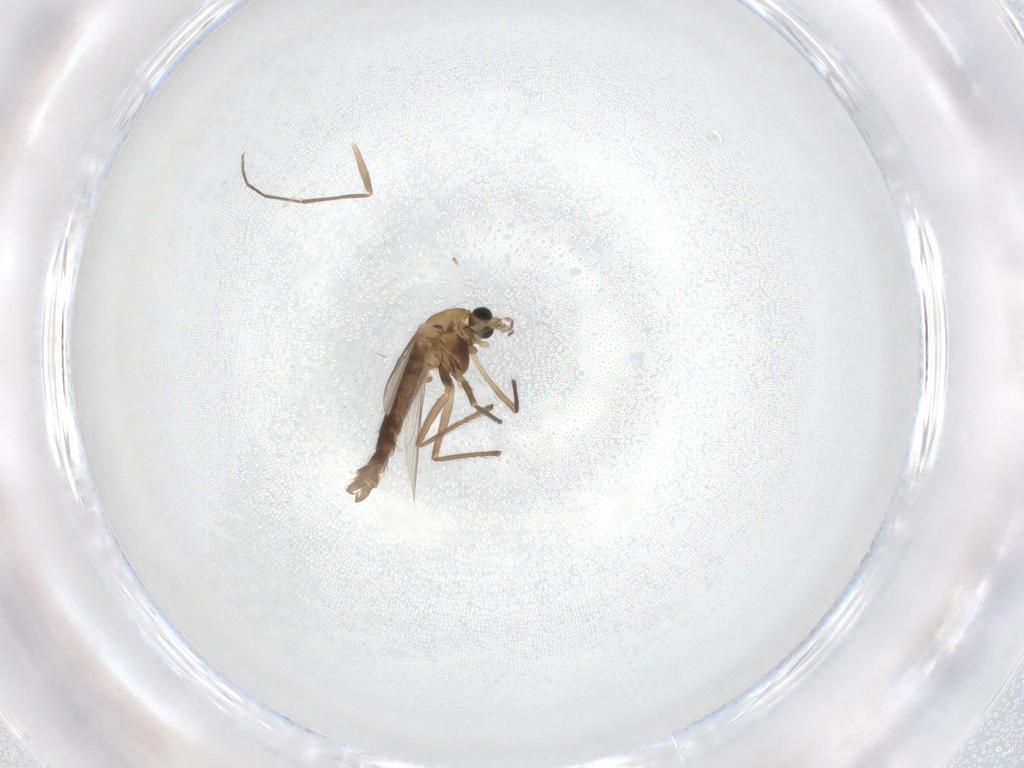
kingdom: Animalia
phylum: Arthropoda
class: Insecta
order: Diptera
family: Chironomidae
